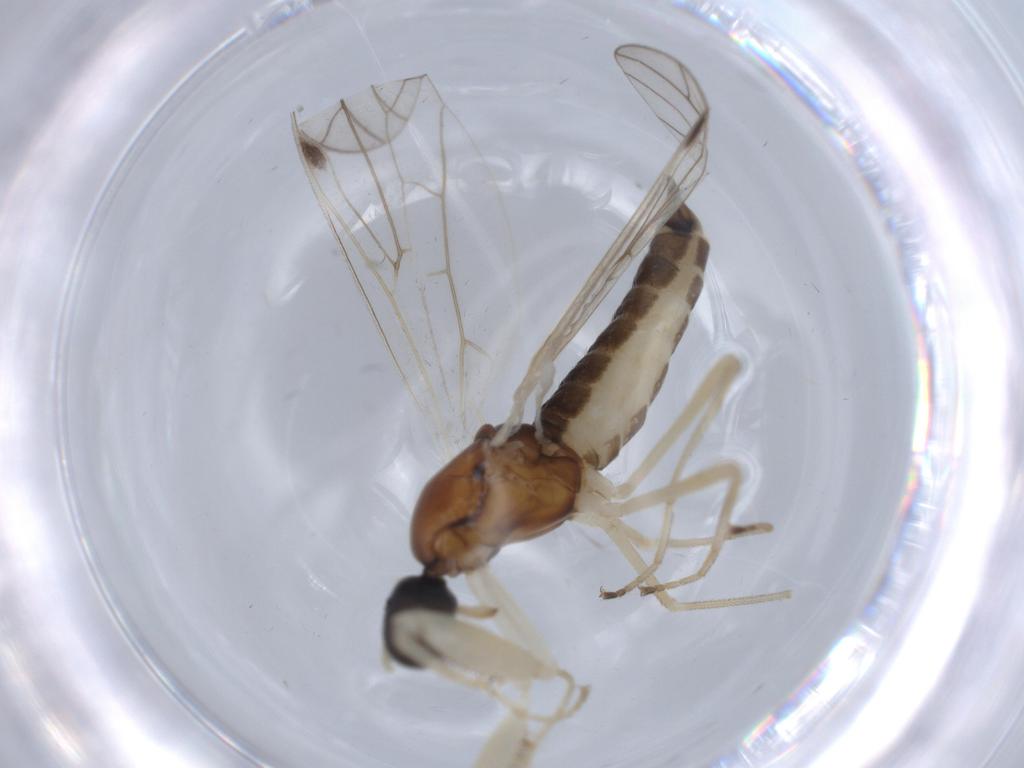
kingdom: Animalia
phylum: Arthropoda
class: Insecta
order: Diptera
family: Empididae
